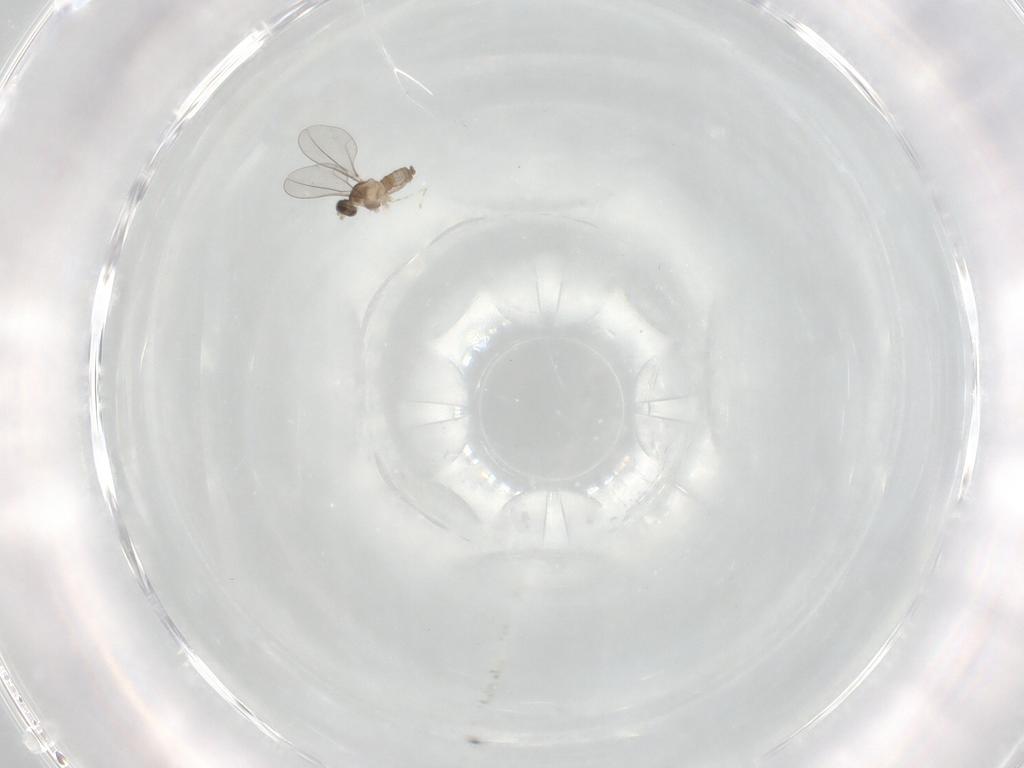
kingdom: Animalia
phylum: Arthropoda
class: Insecta
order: Diptera
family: Cecidomyiidae
